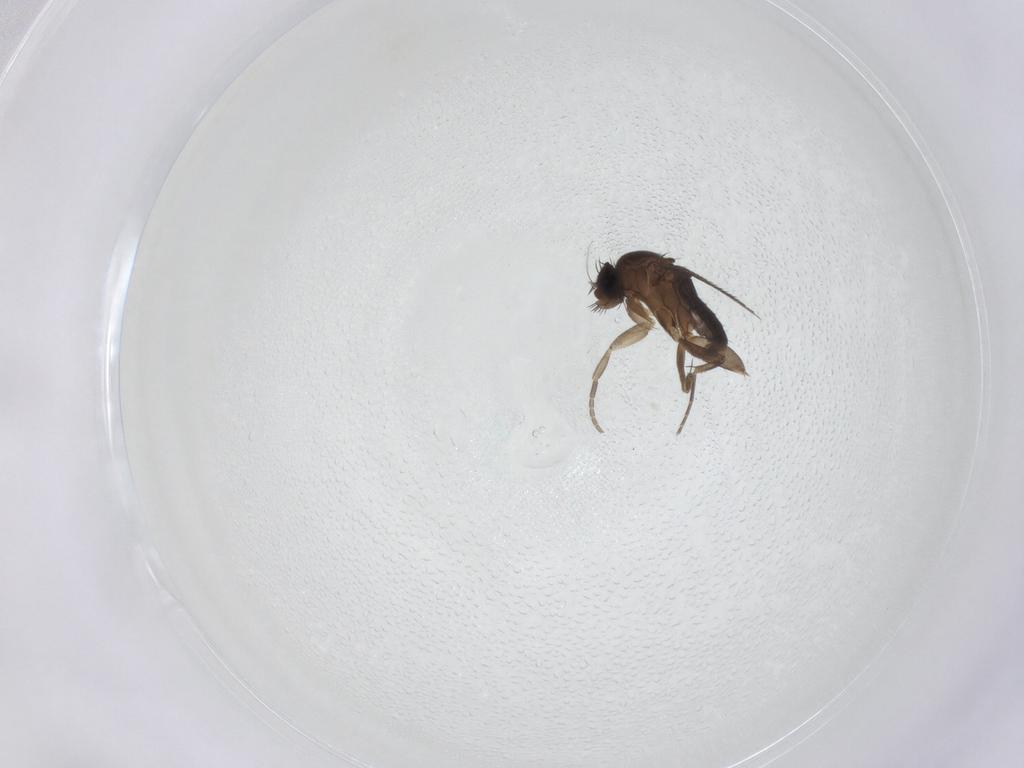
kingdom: Animalia
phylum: Arthropoda
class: Insecta
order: Diptera
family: Phoridae
